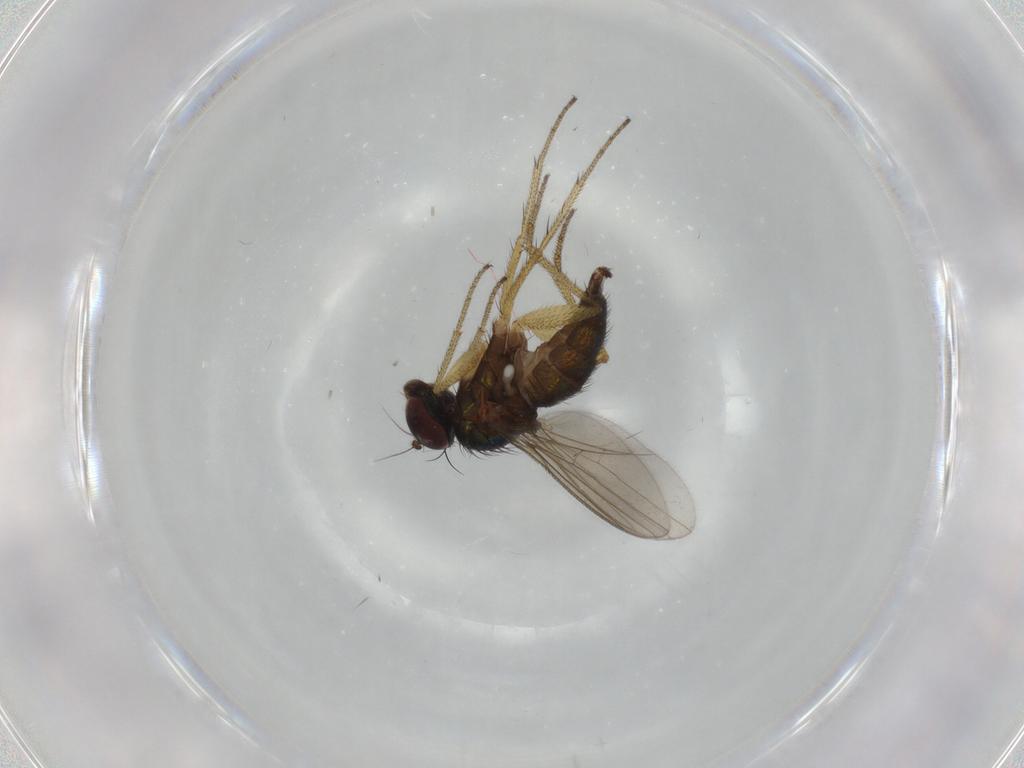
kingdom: Animalia
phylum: Arthropoda
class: Insecta
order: Diptera
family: Dolichopodidae
